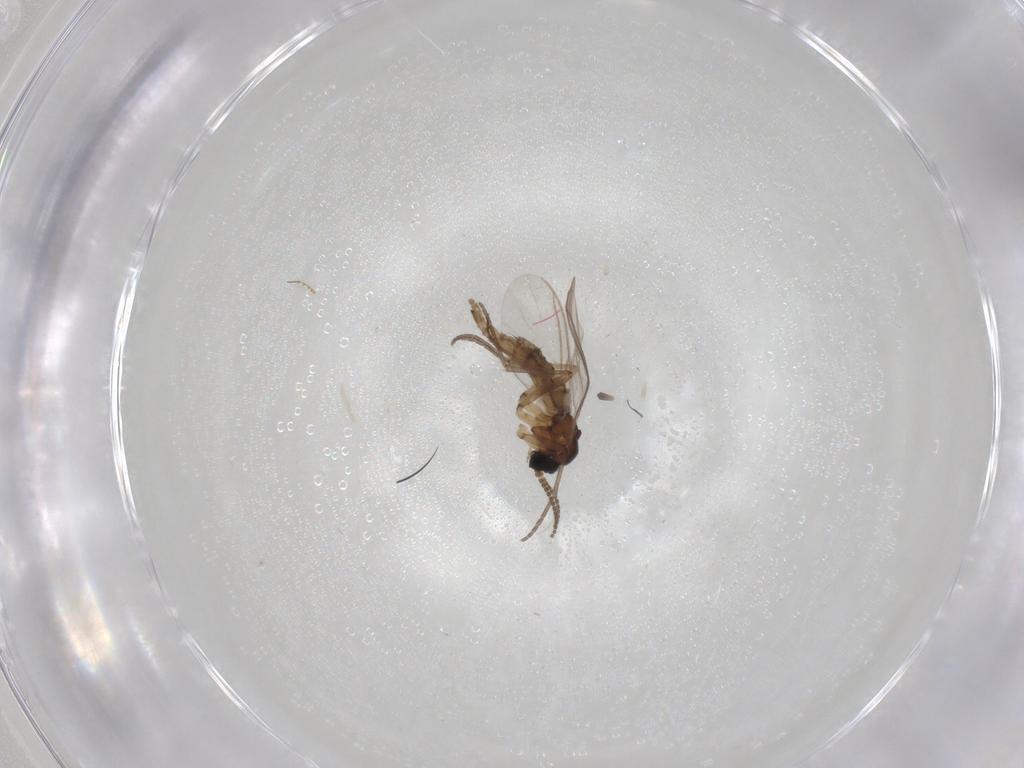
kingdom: Animalia
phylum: Arthropoda
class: Insecta
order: Diptera
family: Sciaridae
